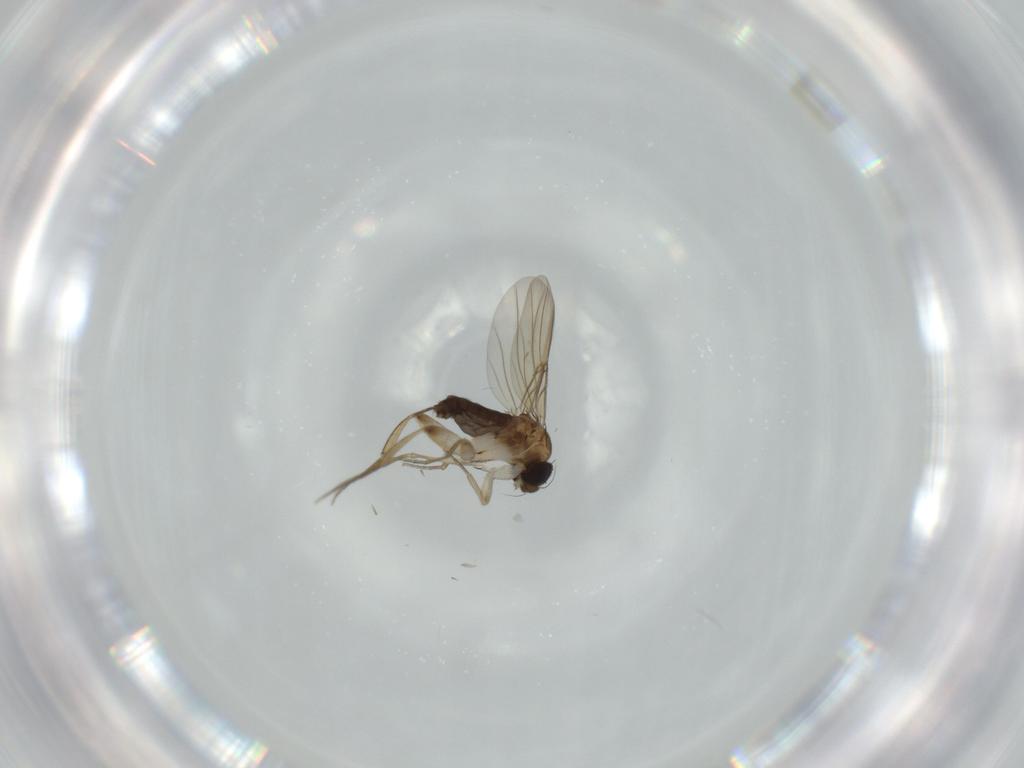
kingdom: Animalia
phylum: Arthropoda
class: Insecta
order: Diptera
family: Phoridae
